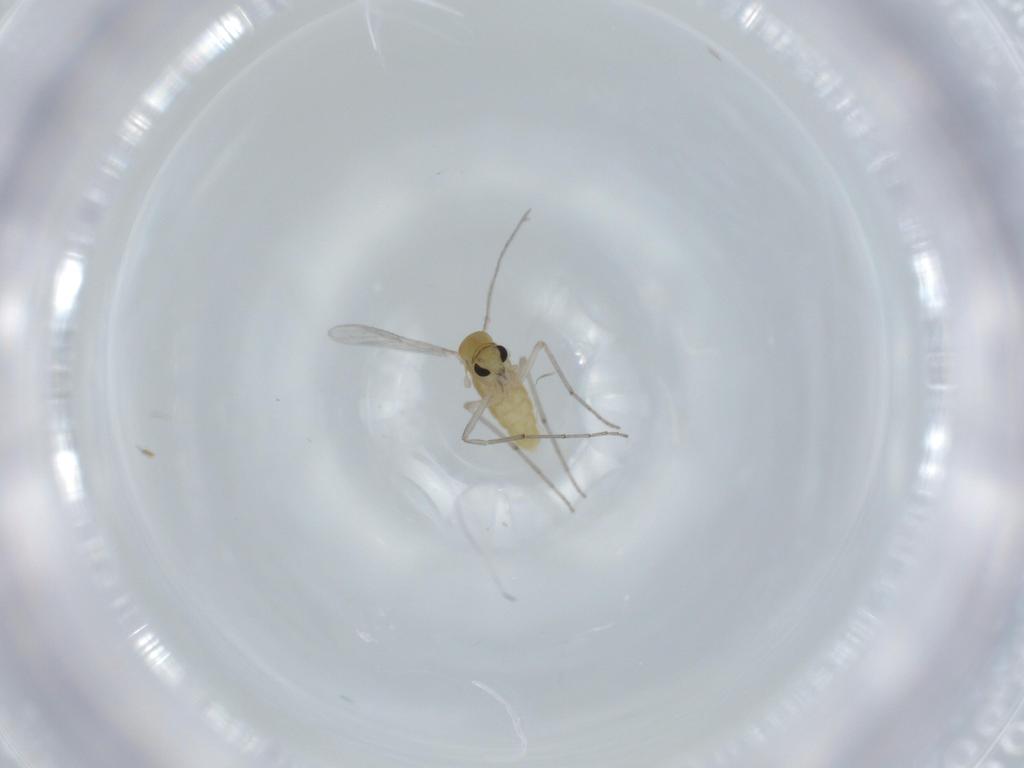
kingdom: Animalia
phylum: Arthropoda
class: Insecta
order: Diptera
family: Chironomidae
